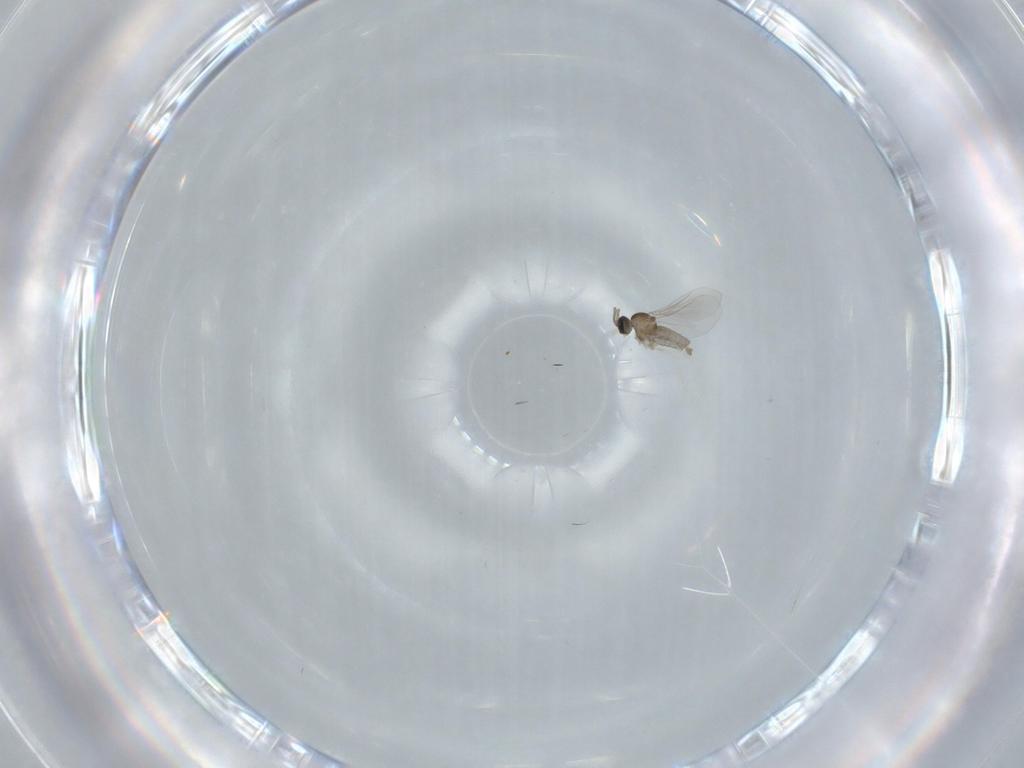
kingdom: Animalia
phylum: Arthropoda
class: Insecta
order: Diptera
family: Cecidomyiidae
